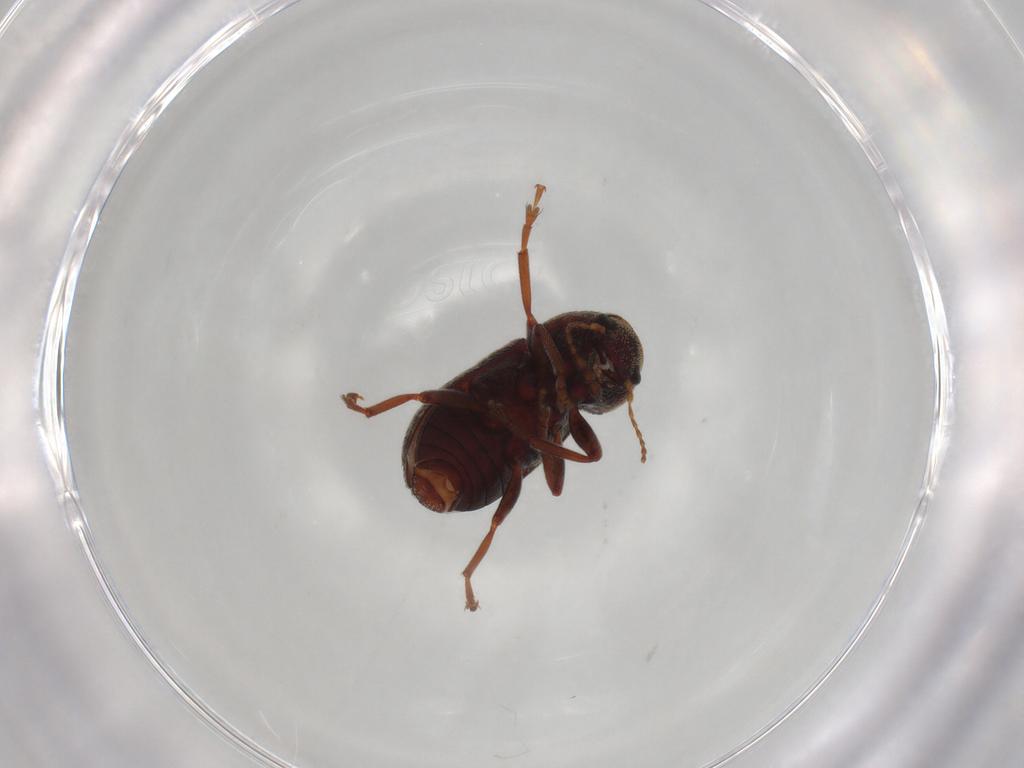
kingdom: Animalia
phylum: Arthropoda
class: Insecta
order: Coleoptera
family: Anthribidae
